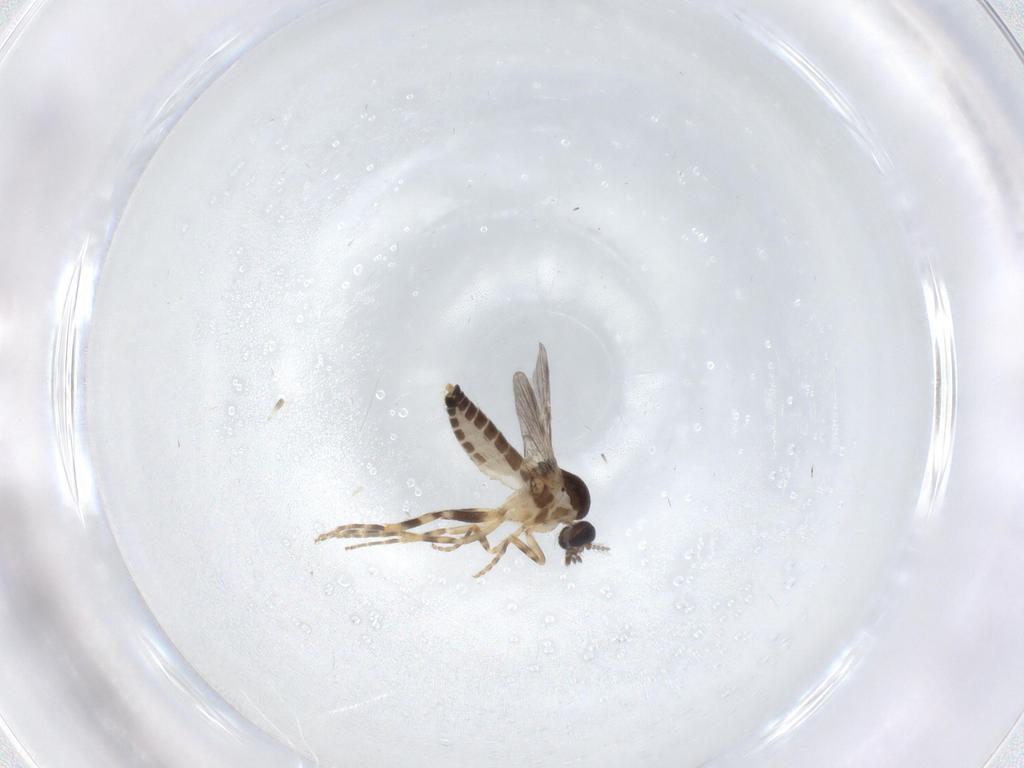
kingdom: Animalia
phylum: Arthropoda
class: Insecta
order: Diptera
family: Ceratopogonidae
